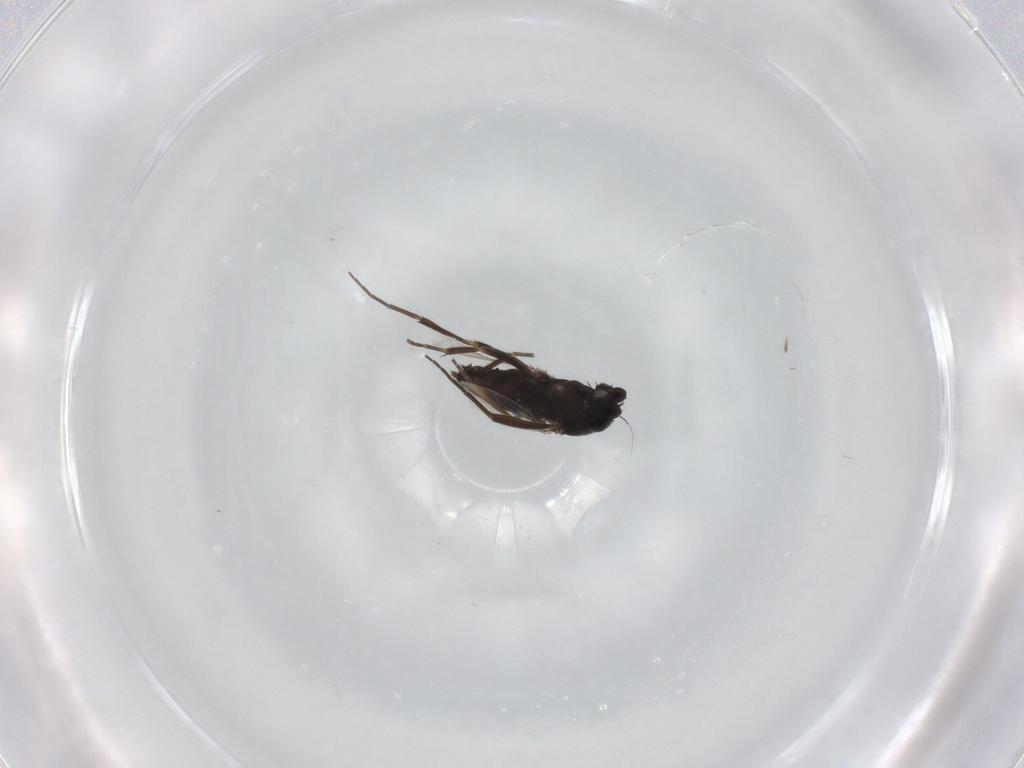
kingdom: Animalia
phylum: Arthropoda
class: Insecta
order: Diptera
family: Phoridae
